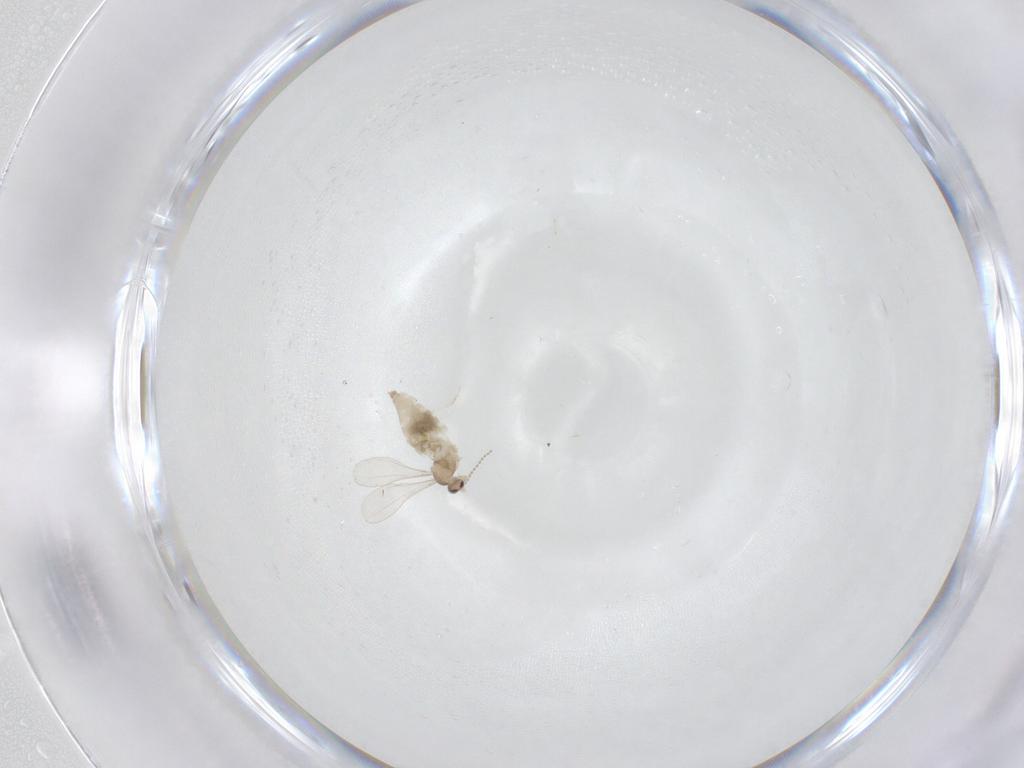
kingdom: Animalia
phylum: Arthropoda
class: Insecta
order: Diptera
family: Cecidomyiidae
